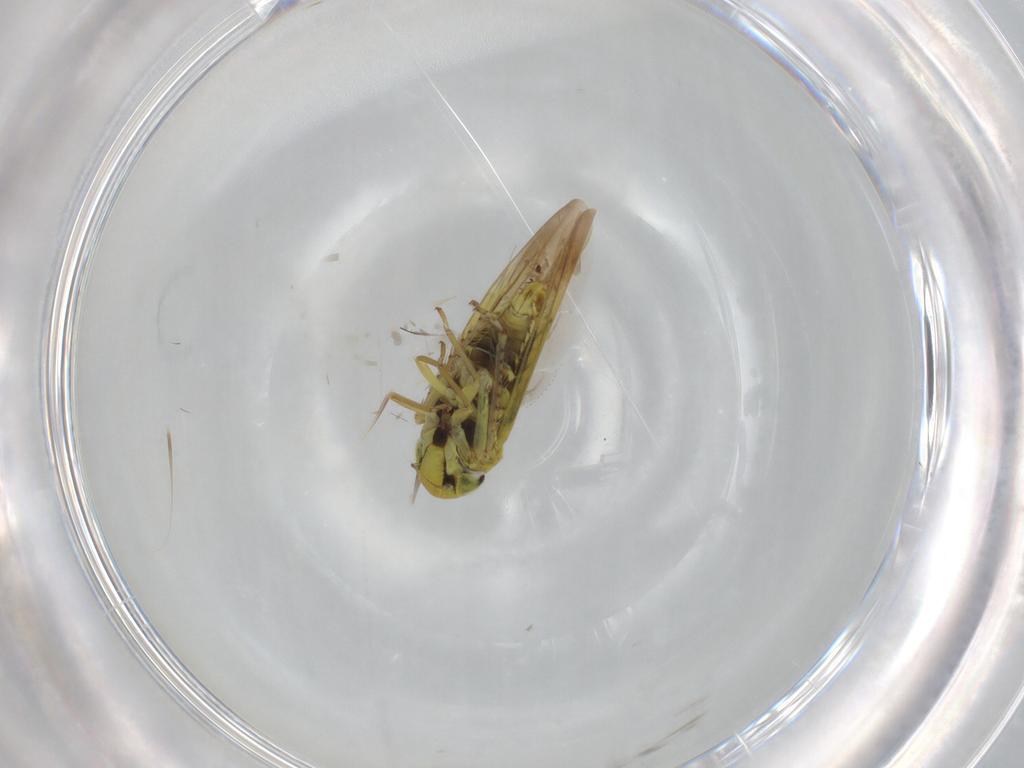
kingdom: Animalia
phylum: Arthropoda
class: Insecta
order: Hemiptera
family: Cicadellidae
